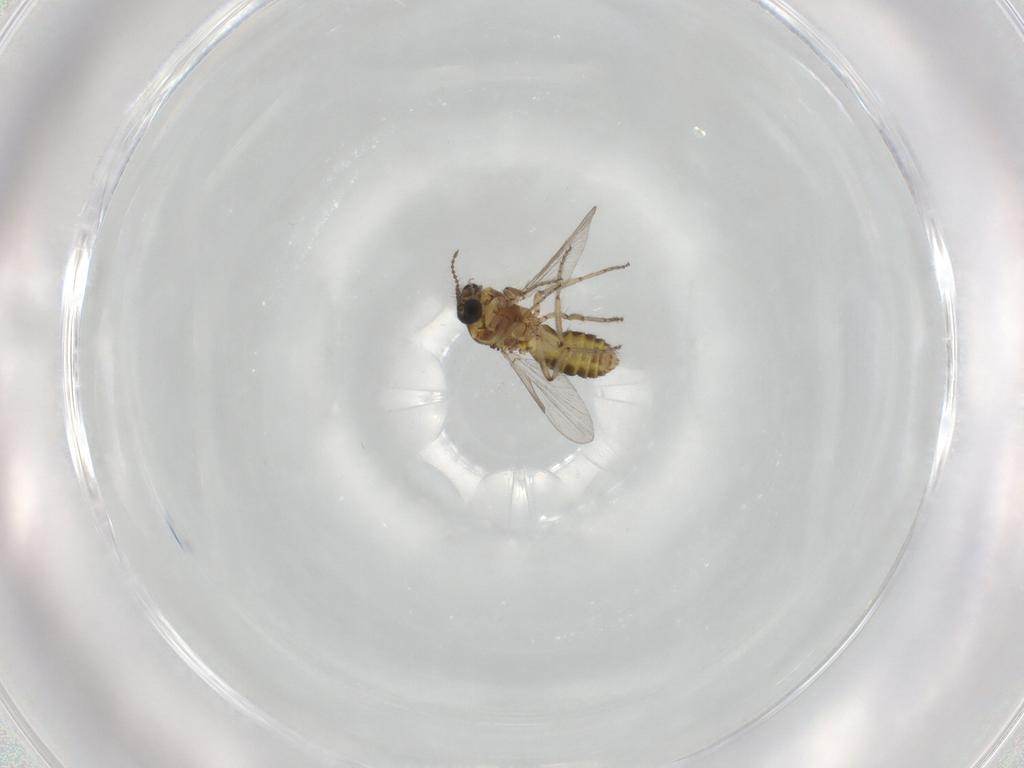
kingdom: Animalia
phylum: Arthropoda
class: Insecta
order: Diptera
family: Ceratopogonidae
